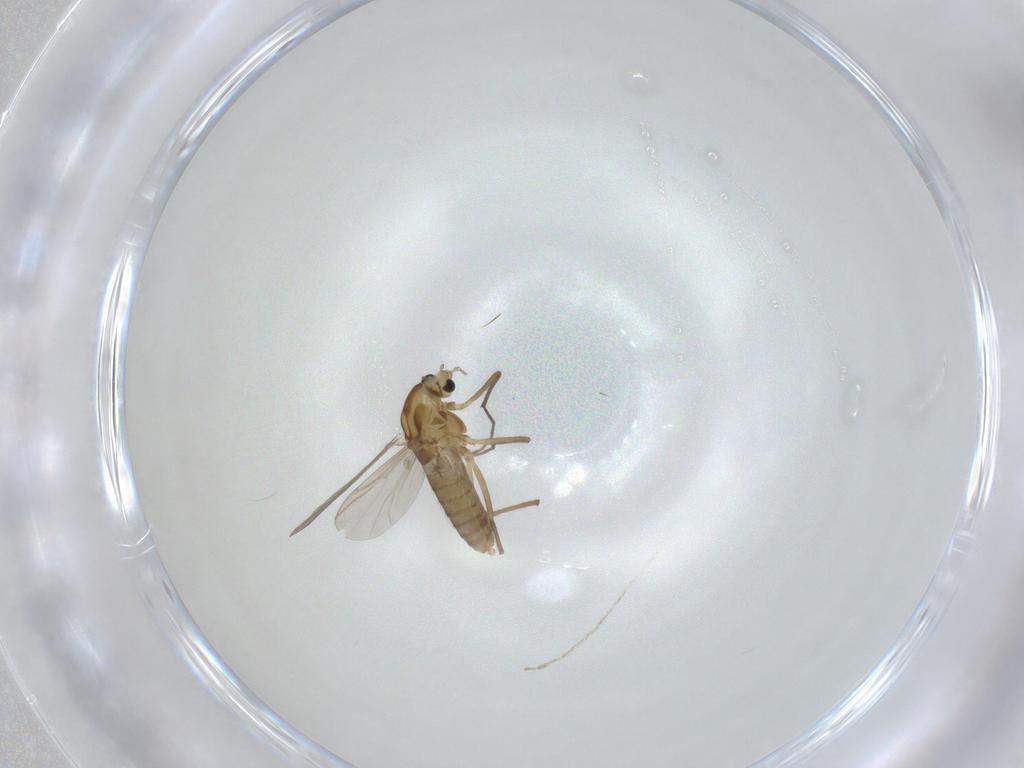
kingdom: Animalia
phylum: Arthropoda
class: Insecta
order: Diptera
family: Chironomidae
